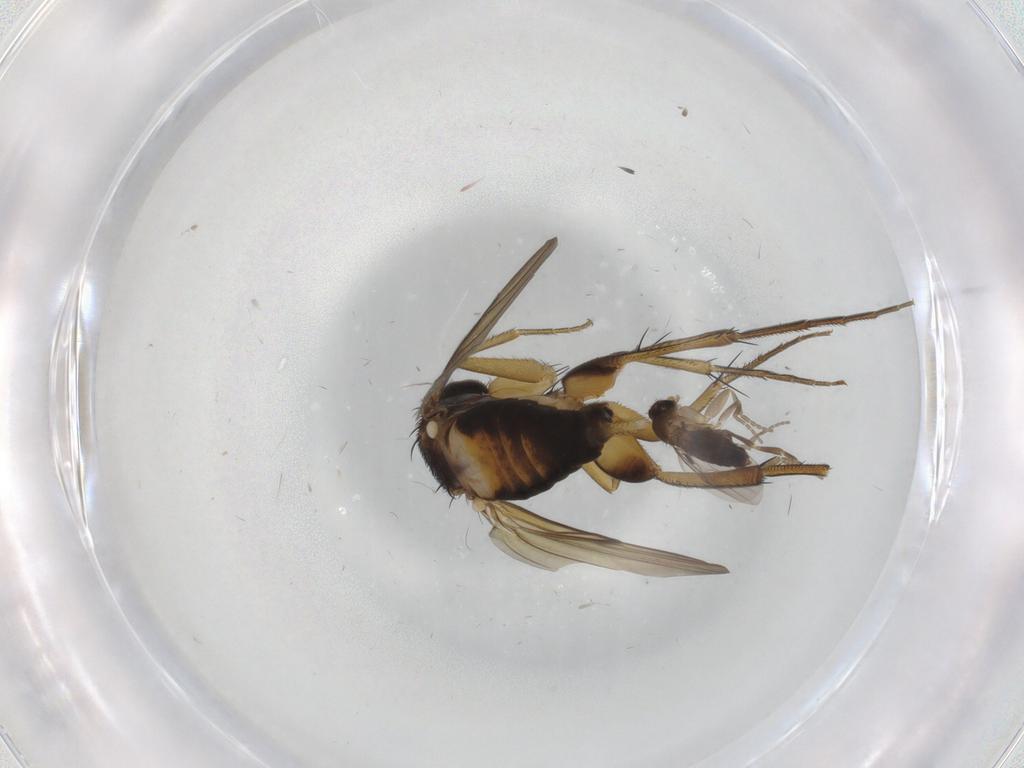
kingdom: Animalia
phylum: Arthropoda
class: Insecta
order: Diptera
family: Phoridae
